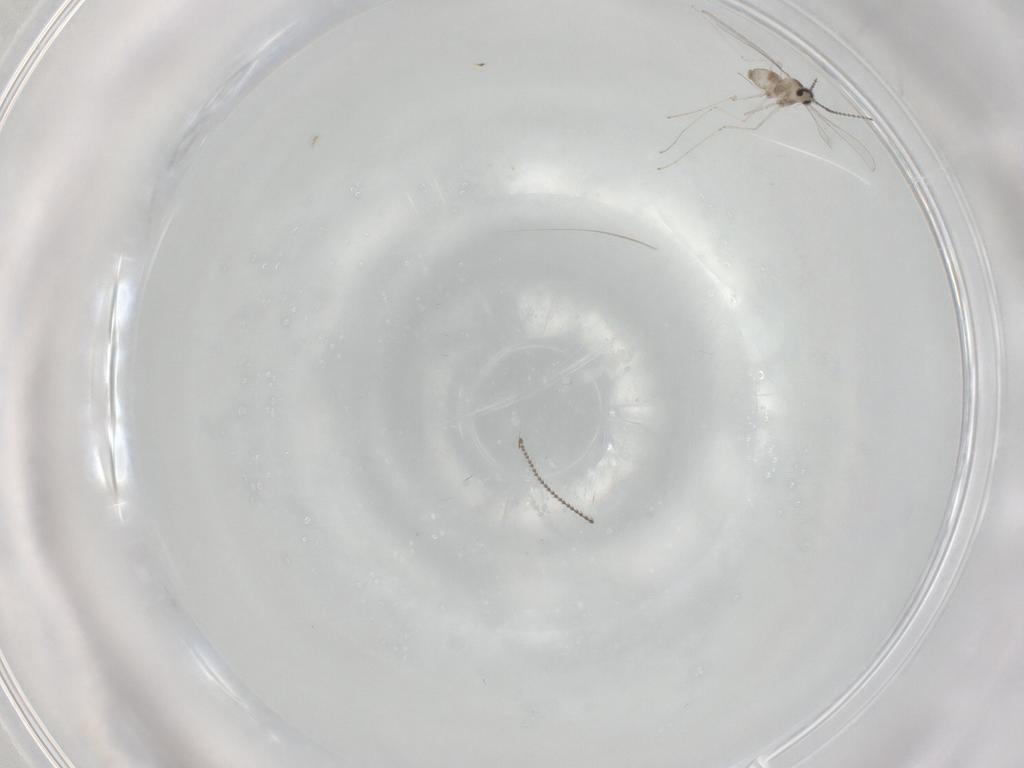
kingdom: Animalia
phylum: Arthropoda
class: Insecta
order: Diptera
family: Cecidomyiidae
